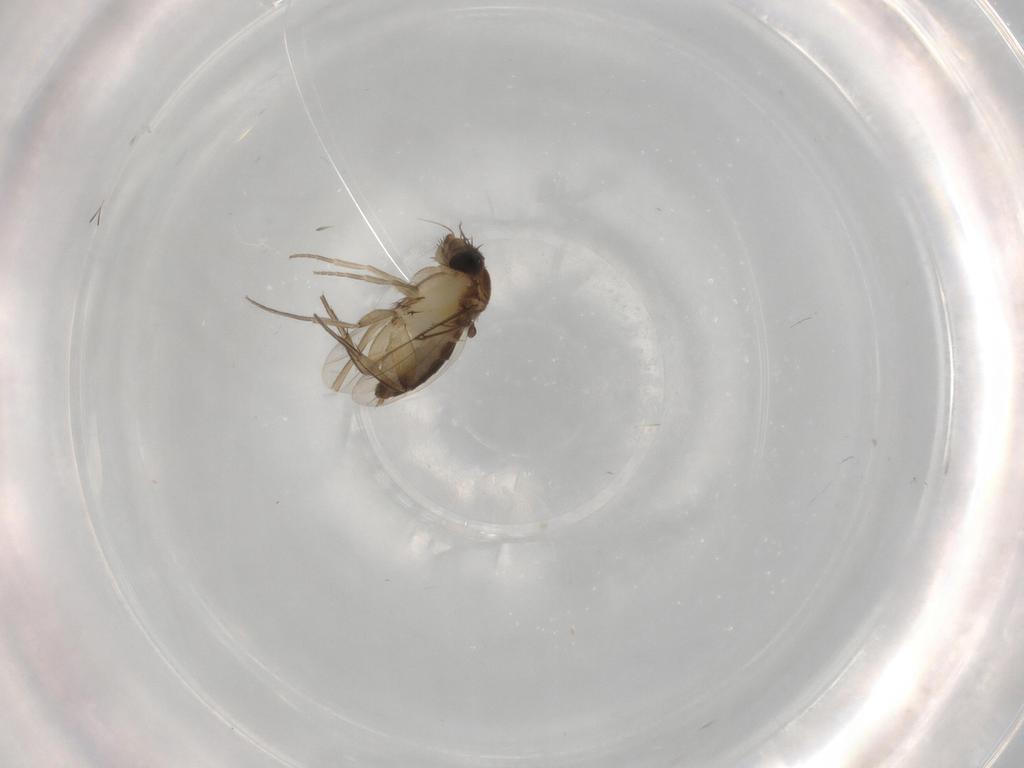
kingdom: Animalia
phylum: Arthropoda
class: Insecta
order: Diptera
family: Phoridae
